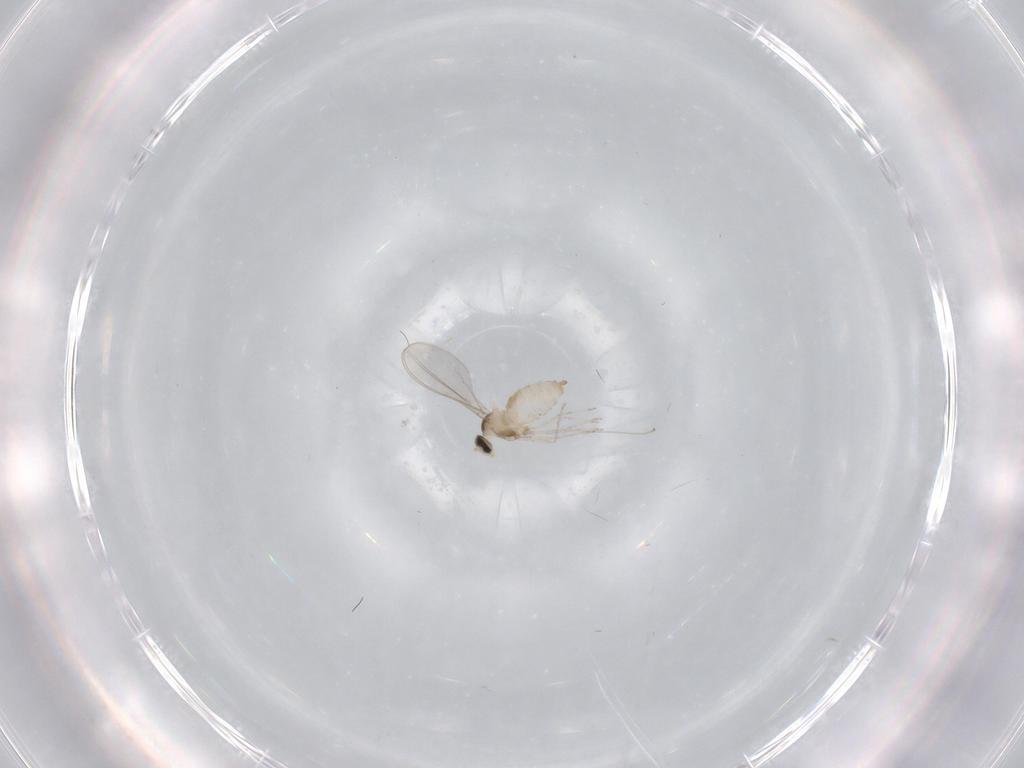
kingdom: Animalia
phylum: Arthropoda
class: Insecta
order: Diptera
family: Cecidomyiidae
